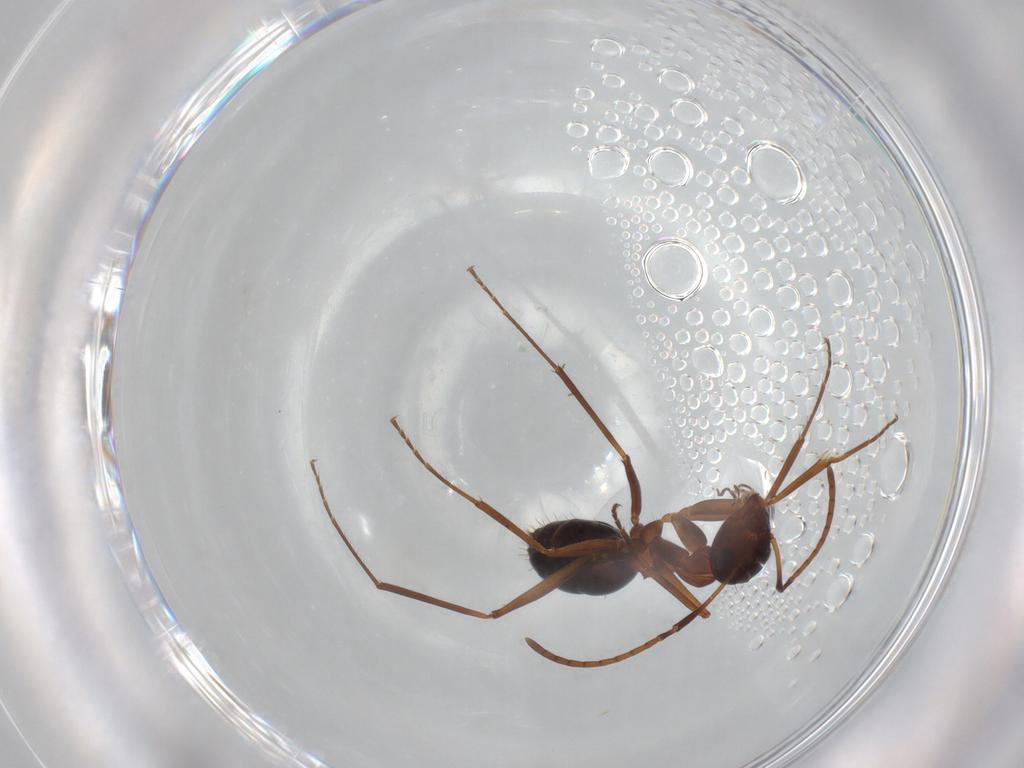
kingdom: Animalia
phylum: Arthropoda
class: Insecta
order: Hymenoptera
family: Formicidae
